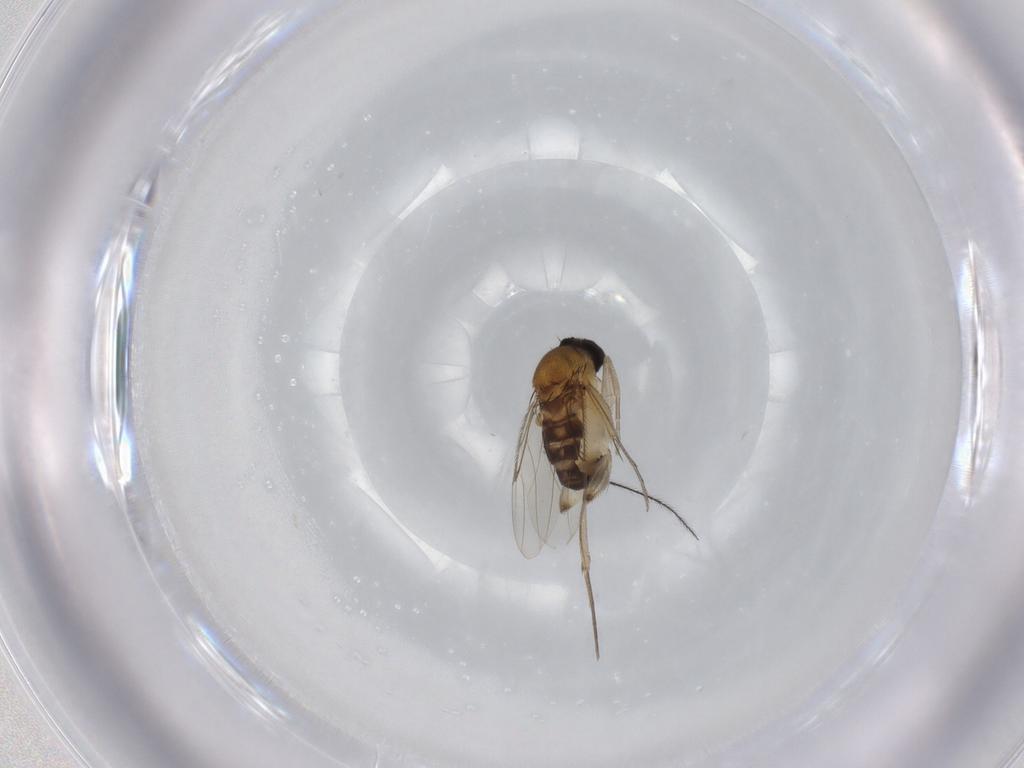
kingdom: Animalia
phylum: Arthropoda
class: Insecta
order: Diptera
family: Phoridae
